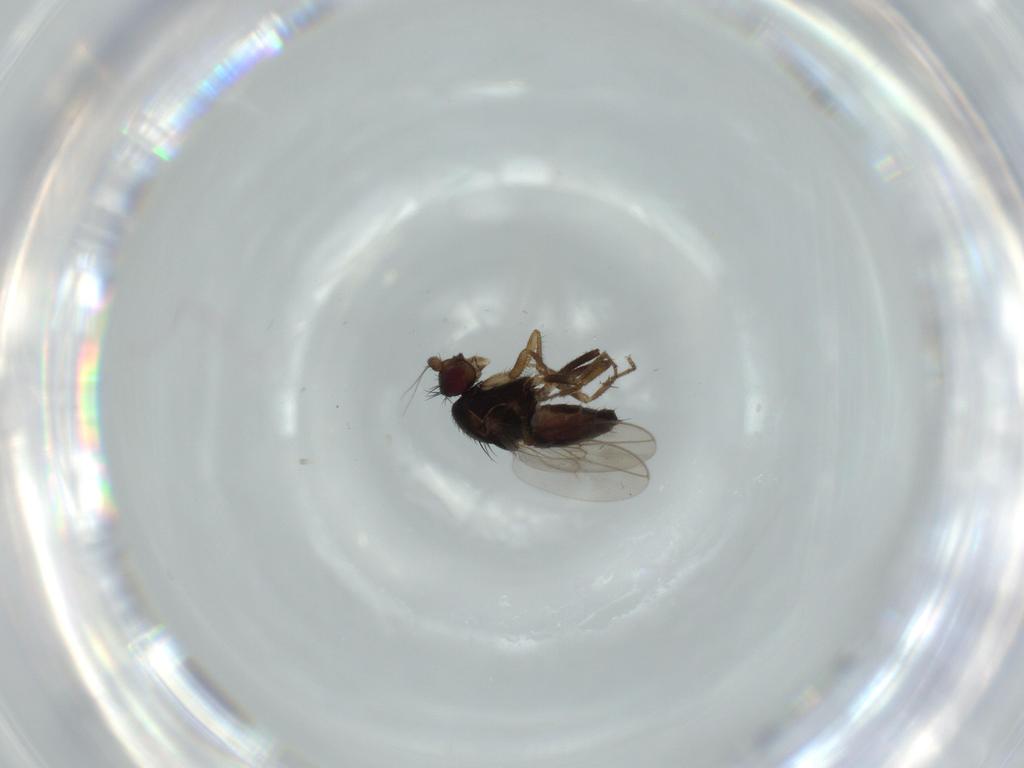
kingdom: Animalia
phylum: Arthropoda
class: Insecta
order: Diptera
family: Sphaeroceridae
